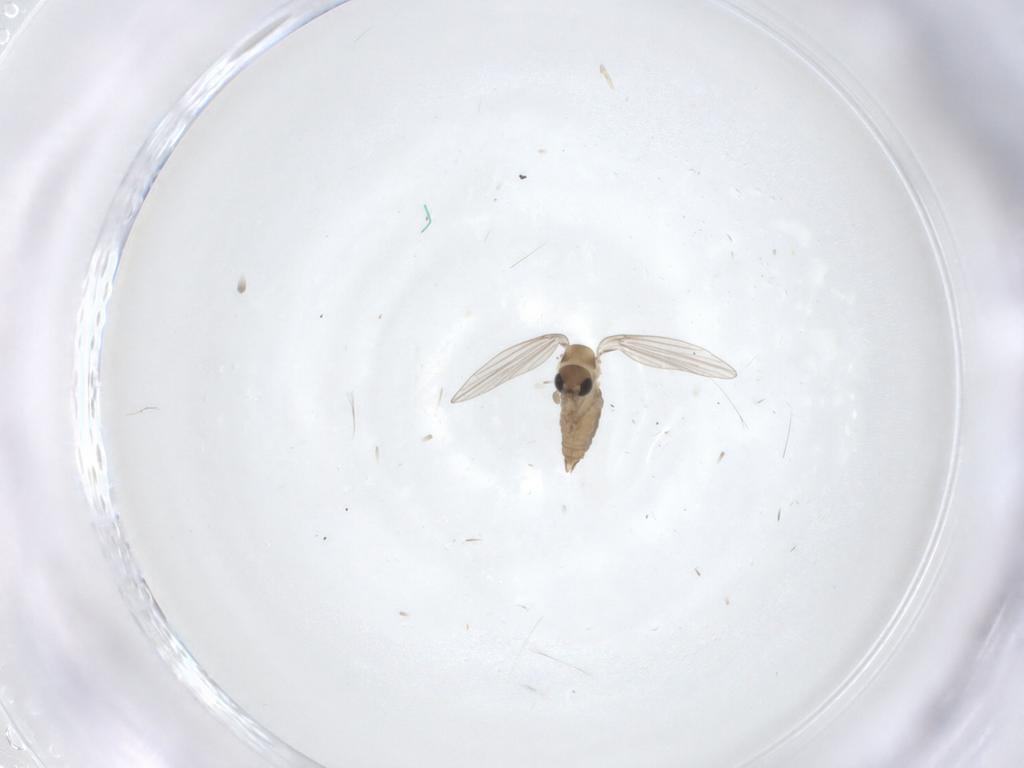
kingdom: Animalia
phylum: Arthropoda
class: Insecta
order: Diptera
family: Psychodidae
